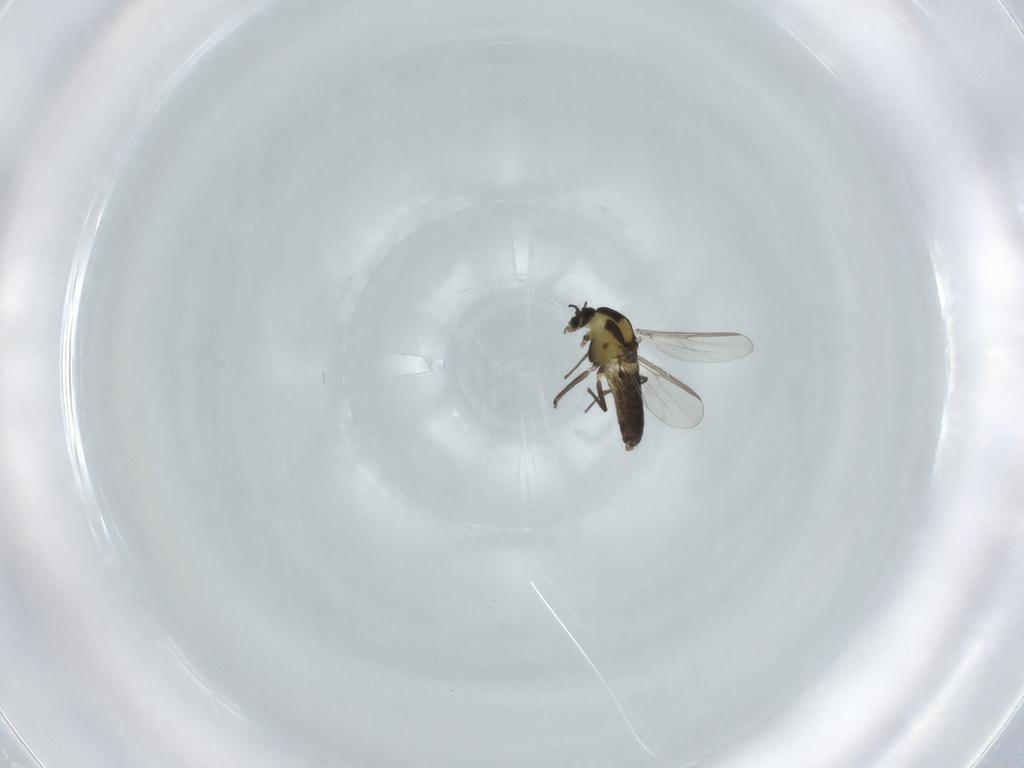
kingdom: Animalia
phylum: Arthropoda
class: Insecta
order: Diptera
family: Chironomidae
